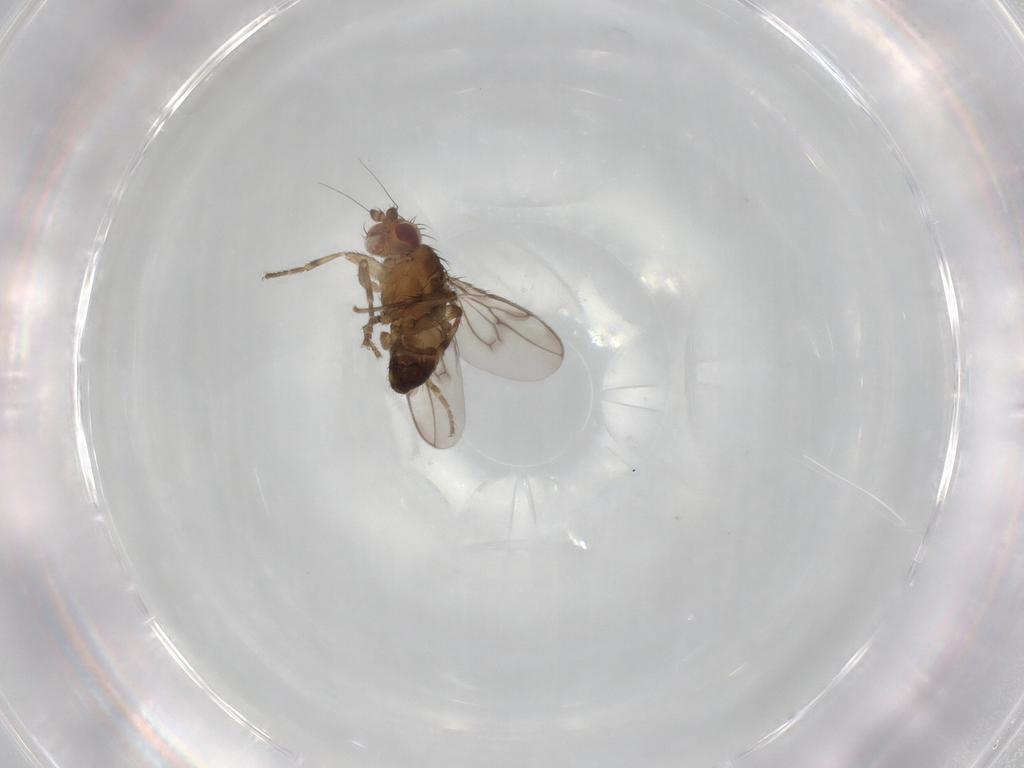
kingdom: Animalia
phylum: Arthropoda
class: Insecta
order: Diptera
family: Sphaeroceridae
